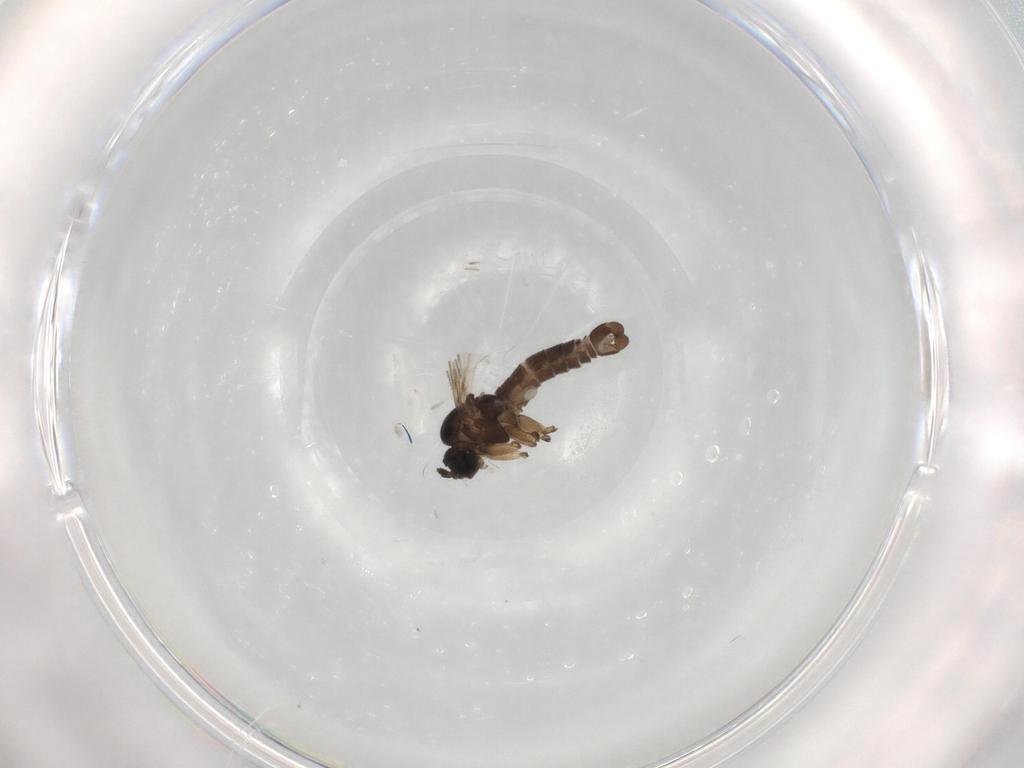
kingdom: Animalia
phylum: Arthropoda
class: Insecta
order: Diptera
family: Sciaridae
